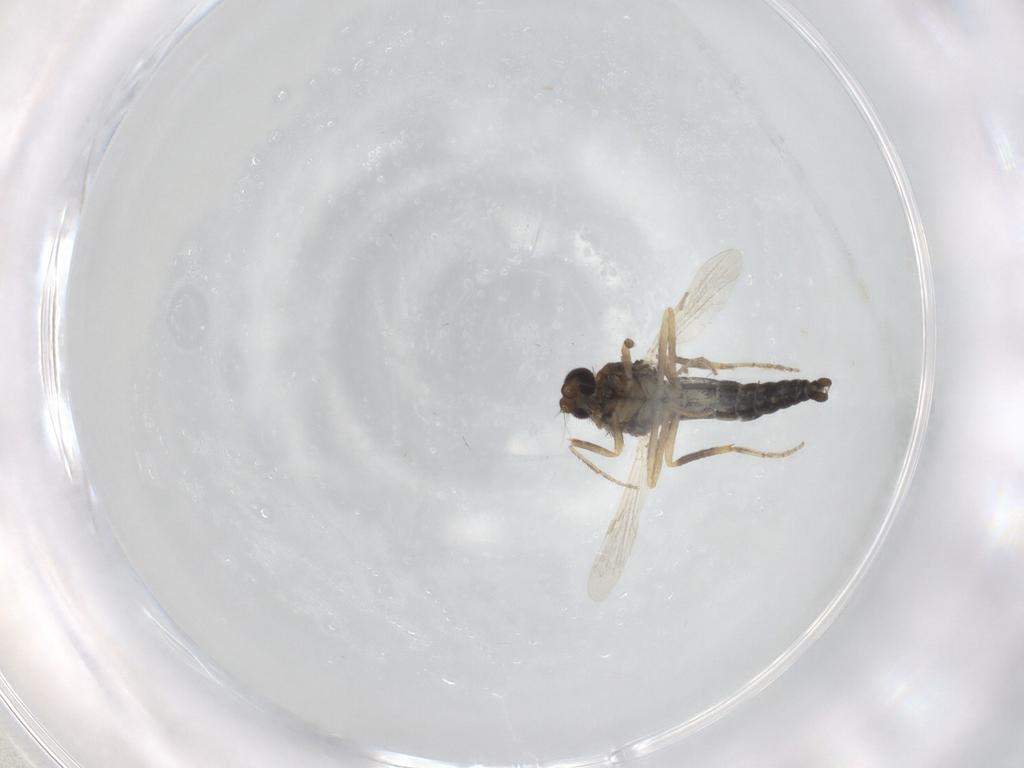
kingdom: Animalia
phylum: Arthropoda
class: Insecta
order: Diptera
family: Ceratopogonidae
